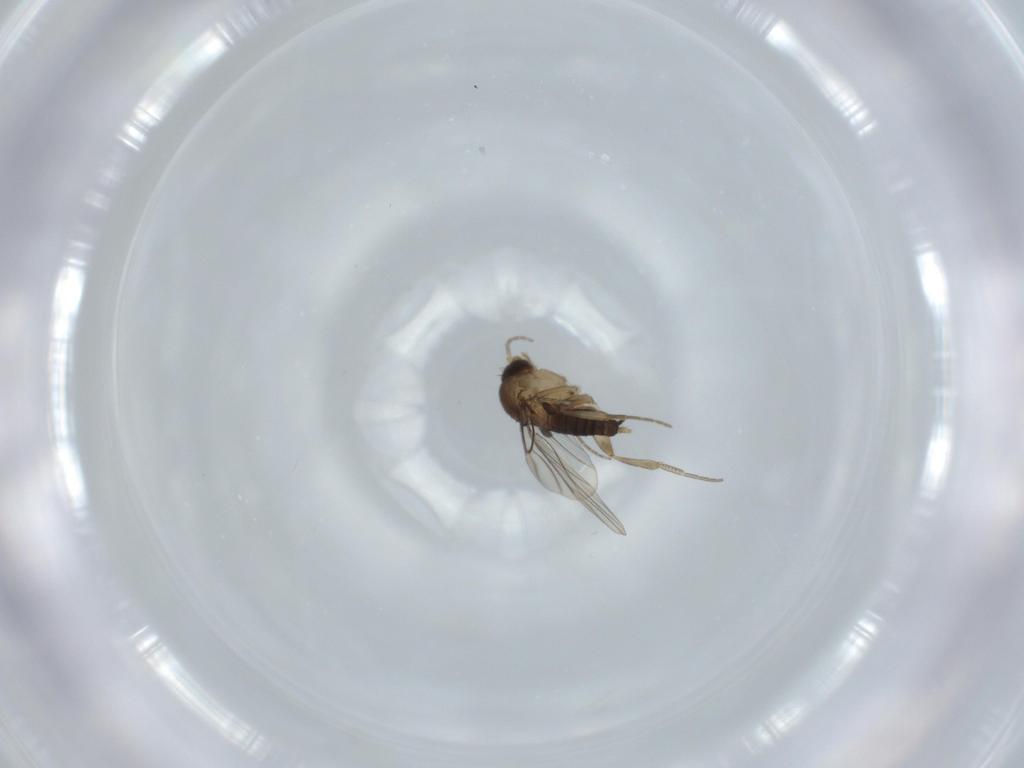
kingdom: Animalia
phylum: Arthropoda
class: Insecta
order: Diptera
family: Phoridae
